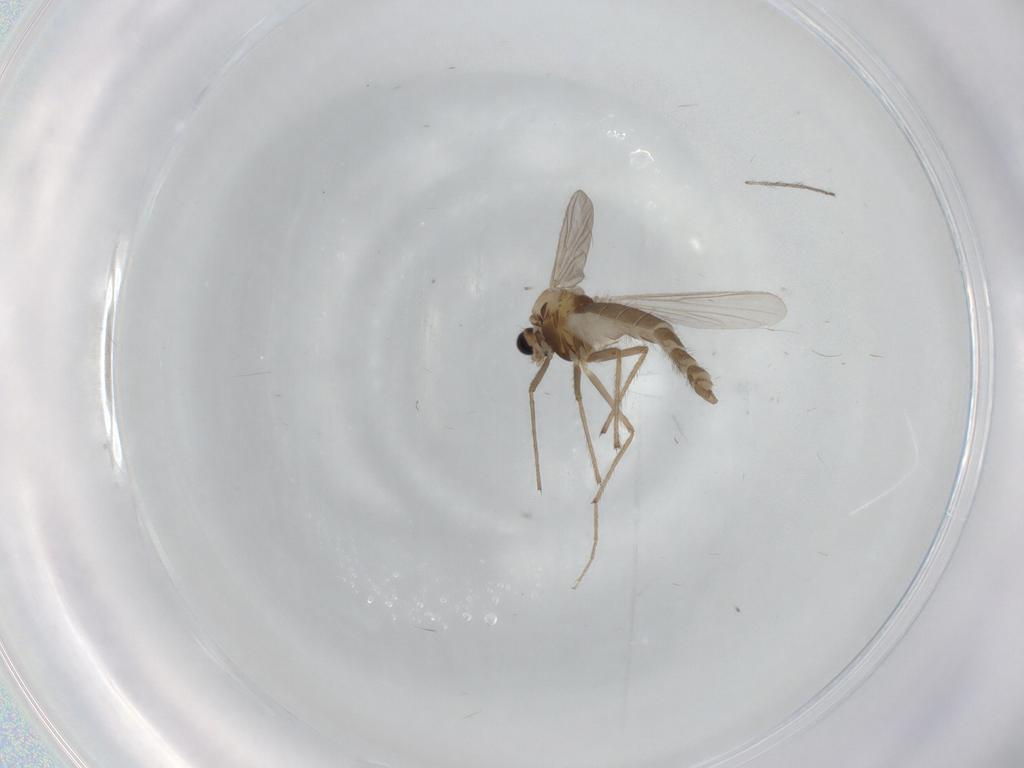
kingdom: Animalia
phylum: Arthropoda
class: Insecta
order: Diptera
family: Chironomidae
